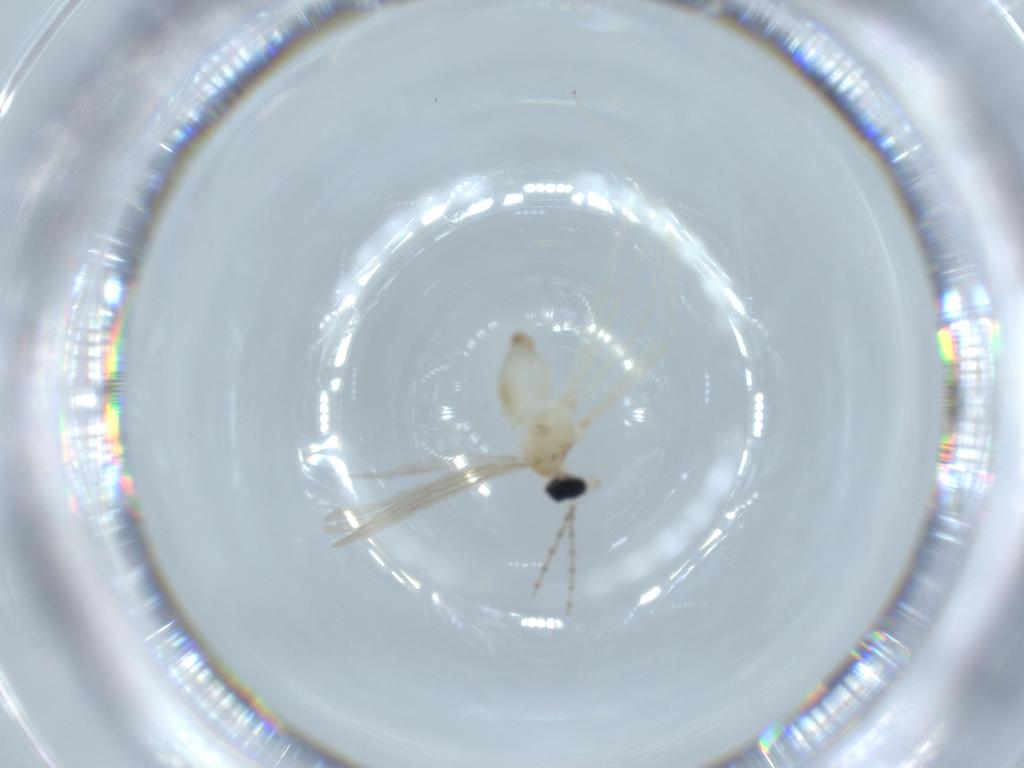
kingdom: Animalia
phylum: Arthropoda
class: Insecta
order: Diptera
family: Cecidomyiidae
